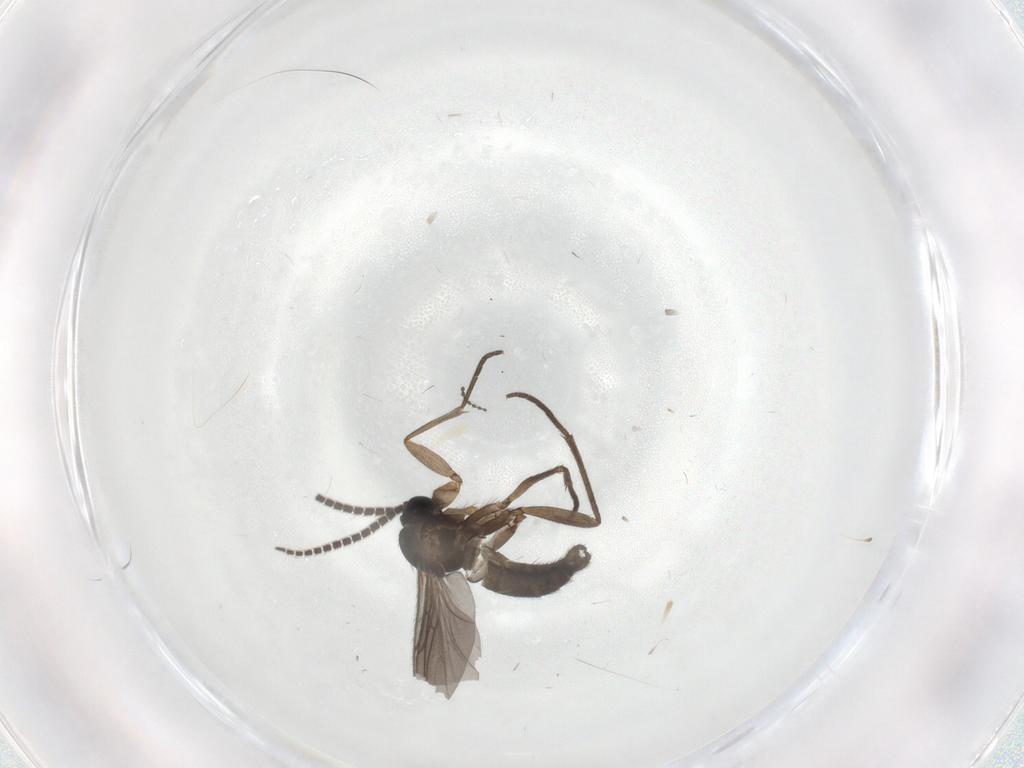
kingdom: Animalia
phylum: Arthropoda
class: Insecta
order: Diptera
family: Sciaridae
